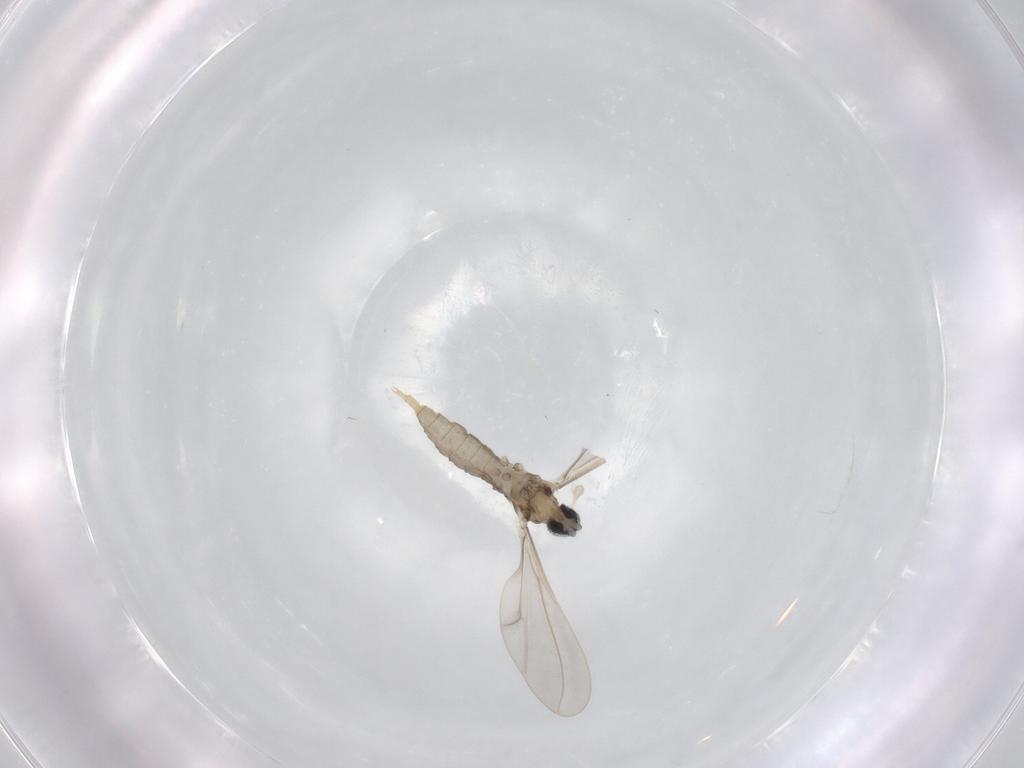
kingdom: Animalia
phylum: Arthropoda
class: Insecta
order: Diptera
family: Cecidomyiidae
